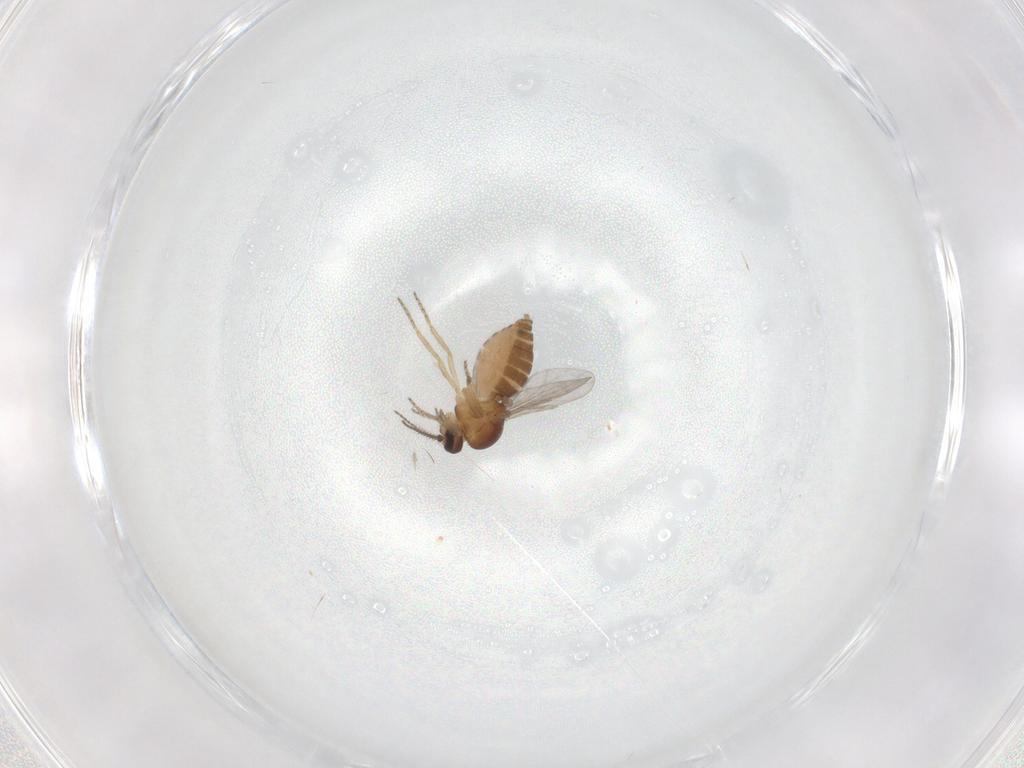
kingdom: Animalia
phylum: Arthropoda
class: Insecta
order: Diptera
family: Ceratopogonidae
